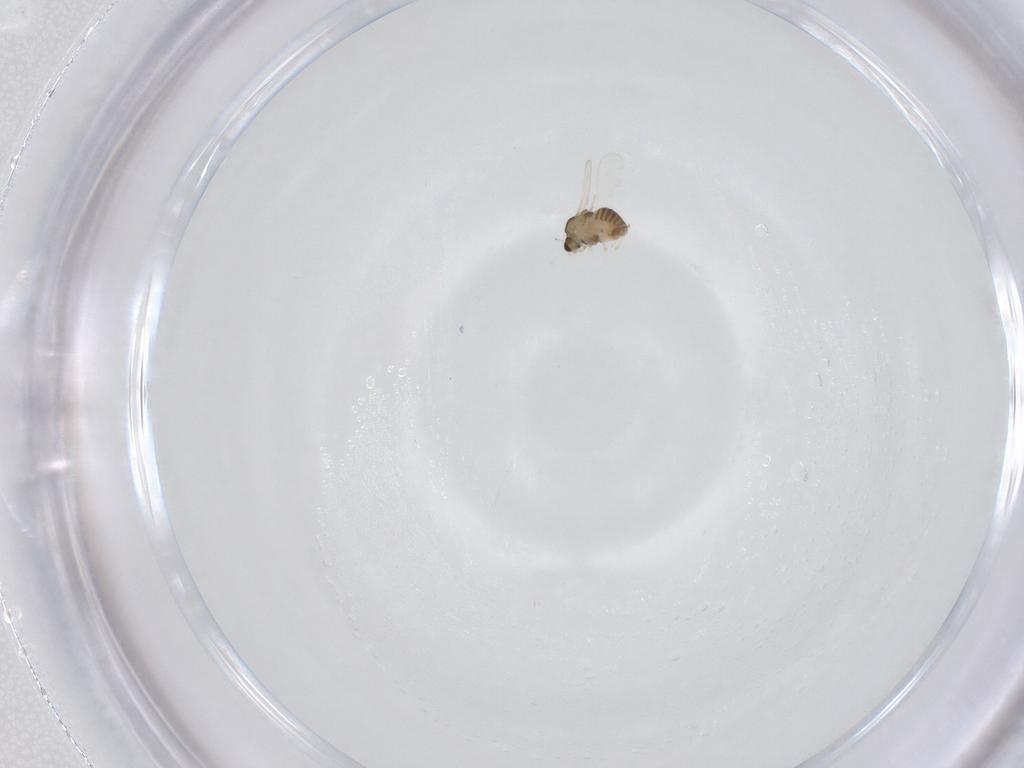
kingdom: Animalia
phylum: Arthropoda
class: Insecta
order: Diptera
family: Chironomidae
